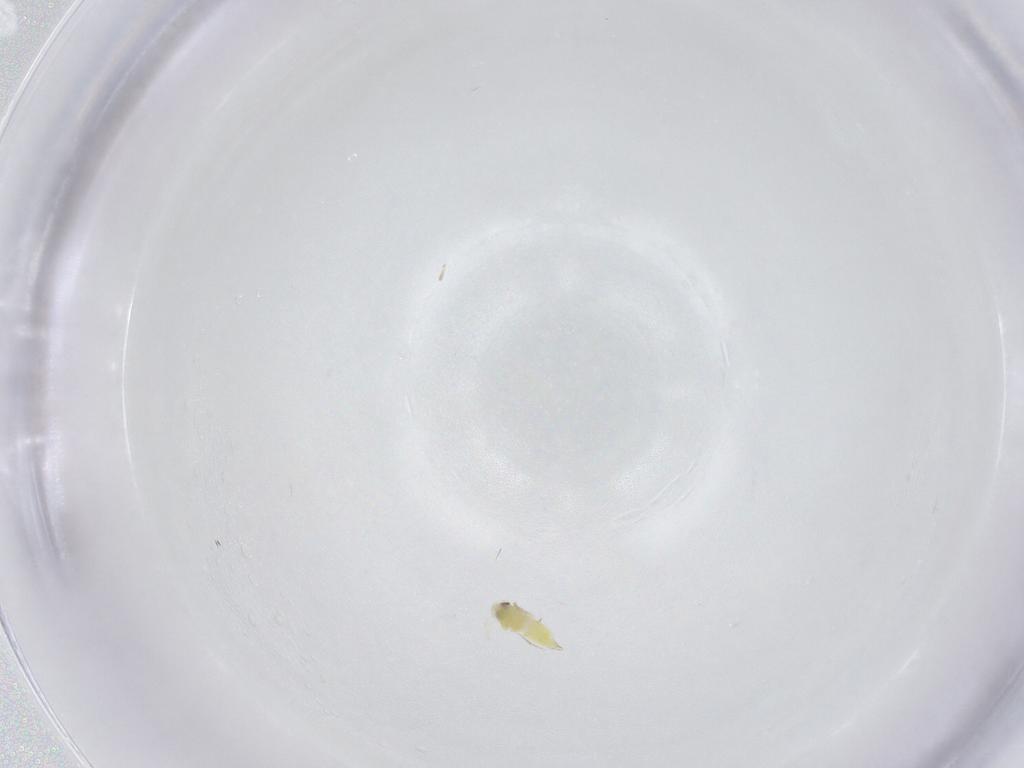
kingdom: Animalia
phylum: Arthropoda
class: Insecta
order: Hemiptera
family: Aleyrodidae
